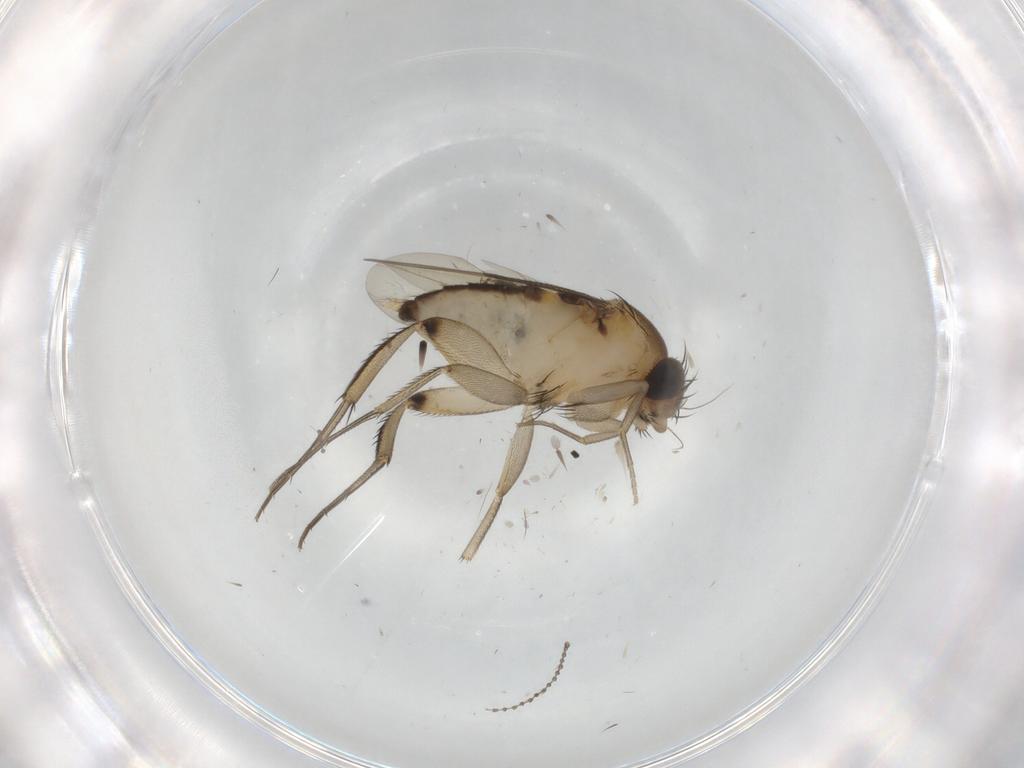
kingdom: Animalia
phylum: Arthropoda
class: Insecta
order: Diptera
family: Phoridae
